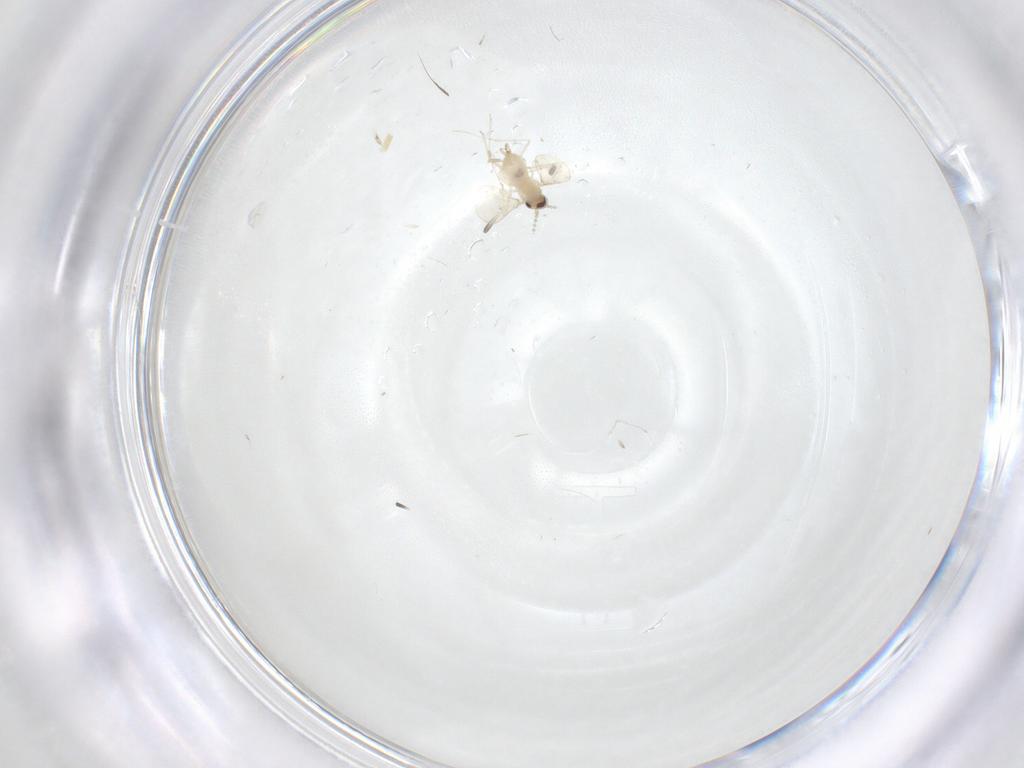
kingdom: Animalia
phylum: Arthropoda
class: Insecta
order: Diptera
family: Cecidomyiidae
